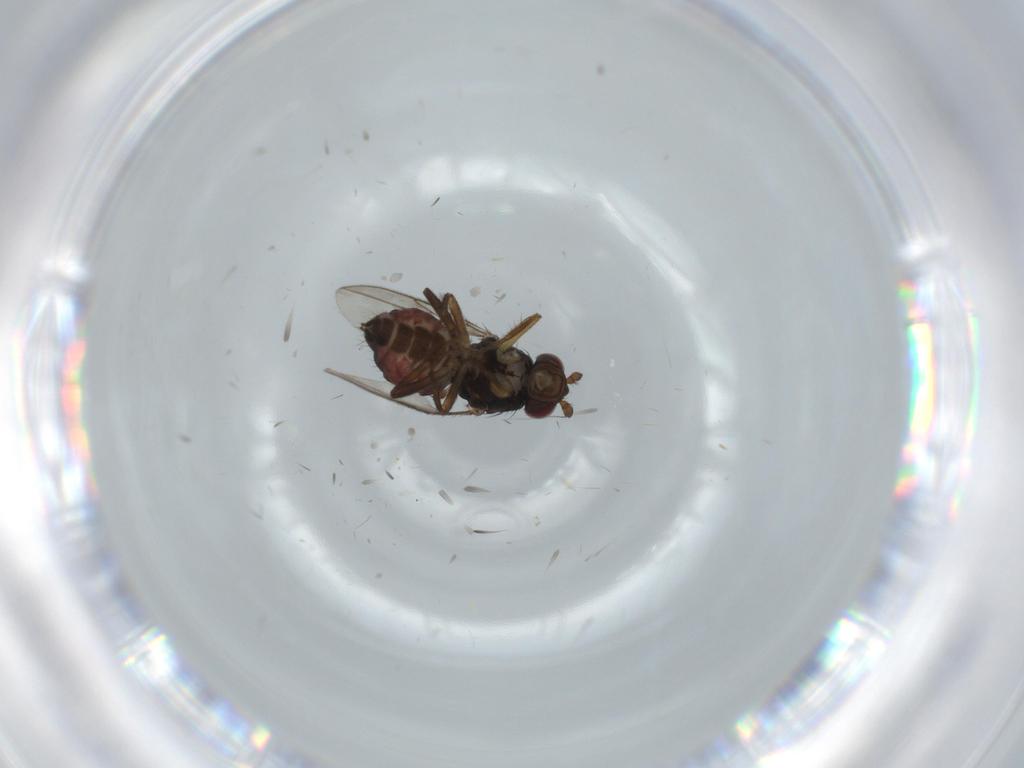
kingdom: Animalia
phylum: Arthropoda
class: Insecta
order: Diptera
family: Sphaeroceridae
